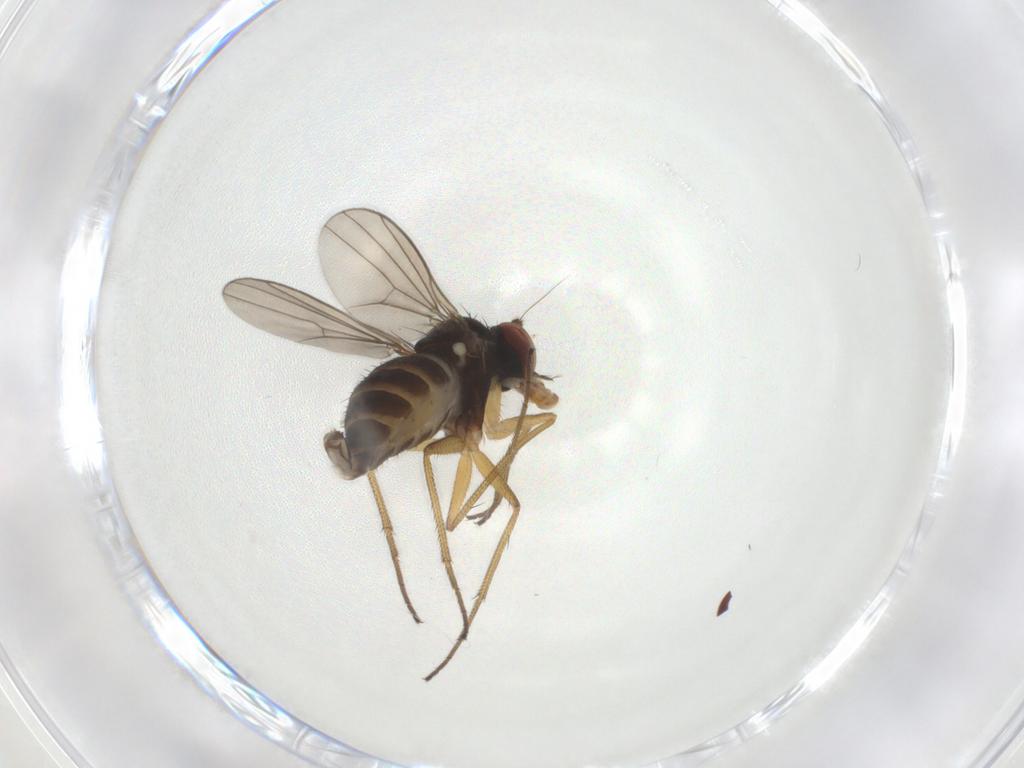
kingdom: Animalia
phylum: Arthropoda
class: Insecta
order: Diptera
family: Dolichopodidae
